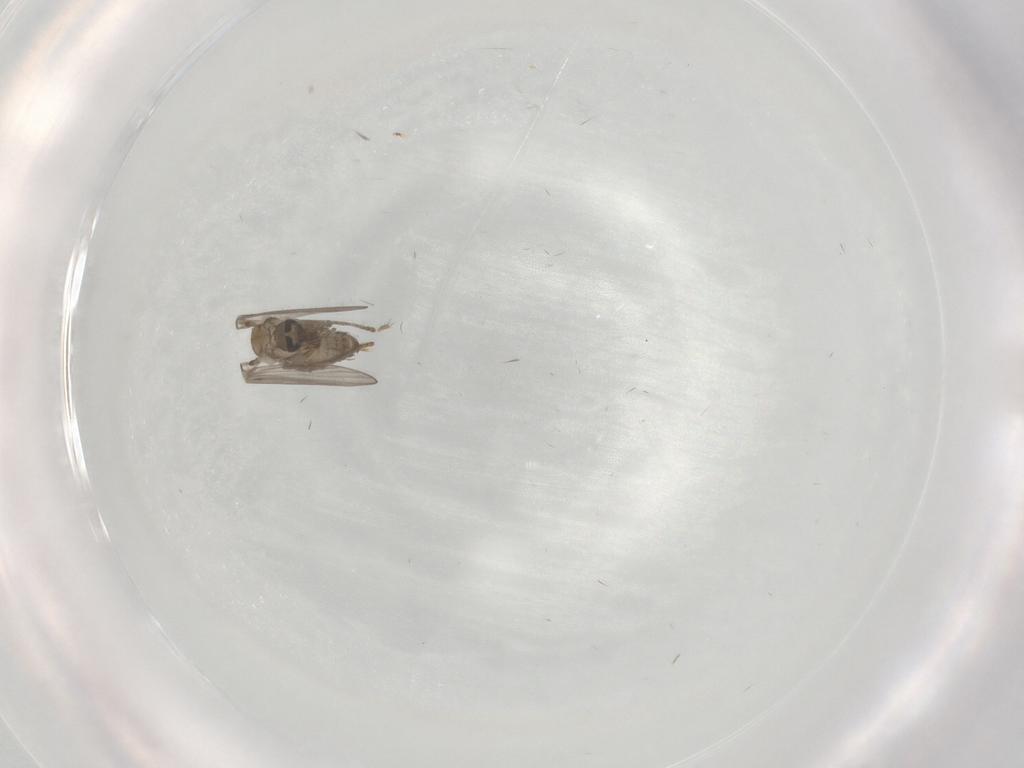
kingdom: Animalia
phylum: Arthropoda
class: Insecta
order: Diptera
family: Psychodidae
